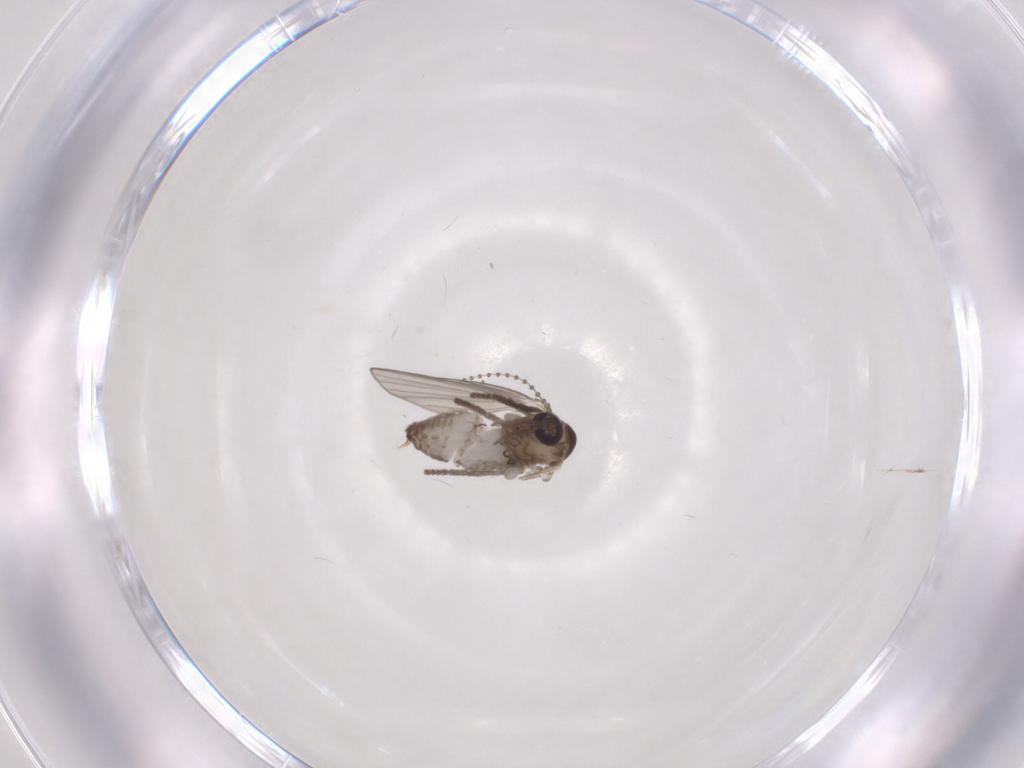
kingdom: Animalia
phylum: Arthropoda
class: Insecta
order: Diptera
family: Psychodidae
